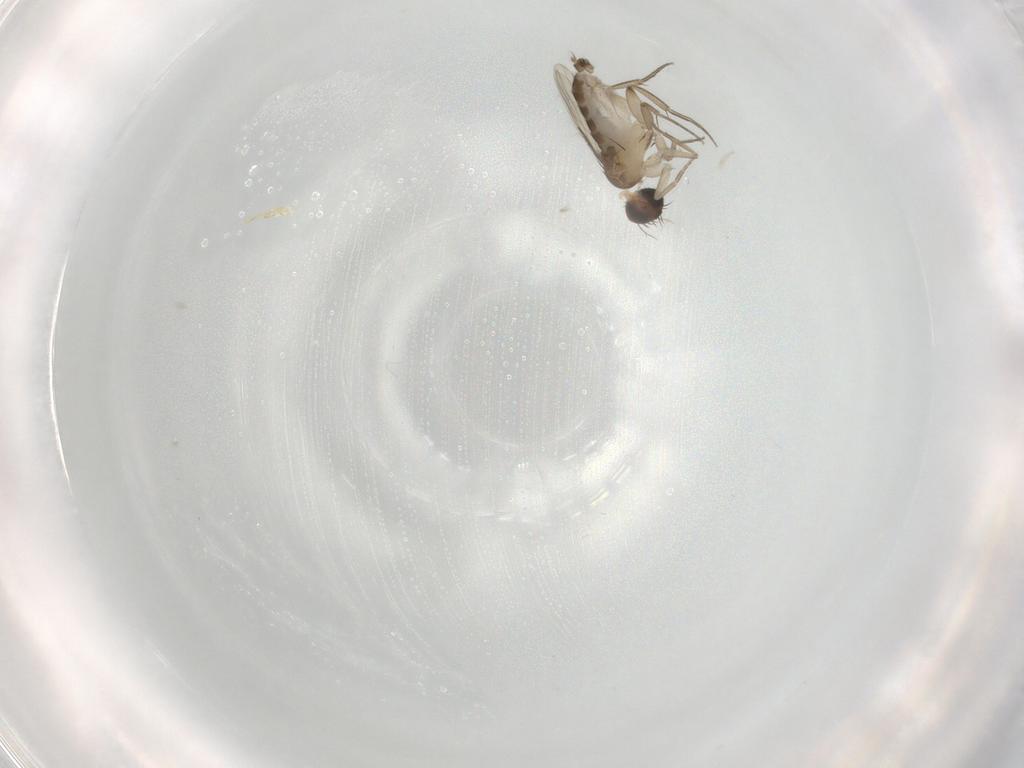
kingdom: Animalia
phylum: Arthropoda
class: Insecta
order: Diptera
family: Phoridae
